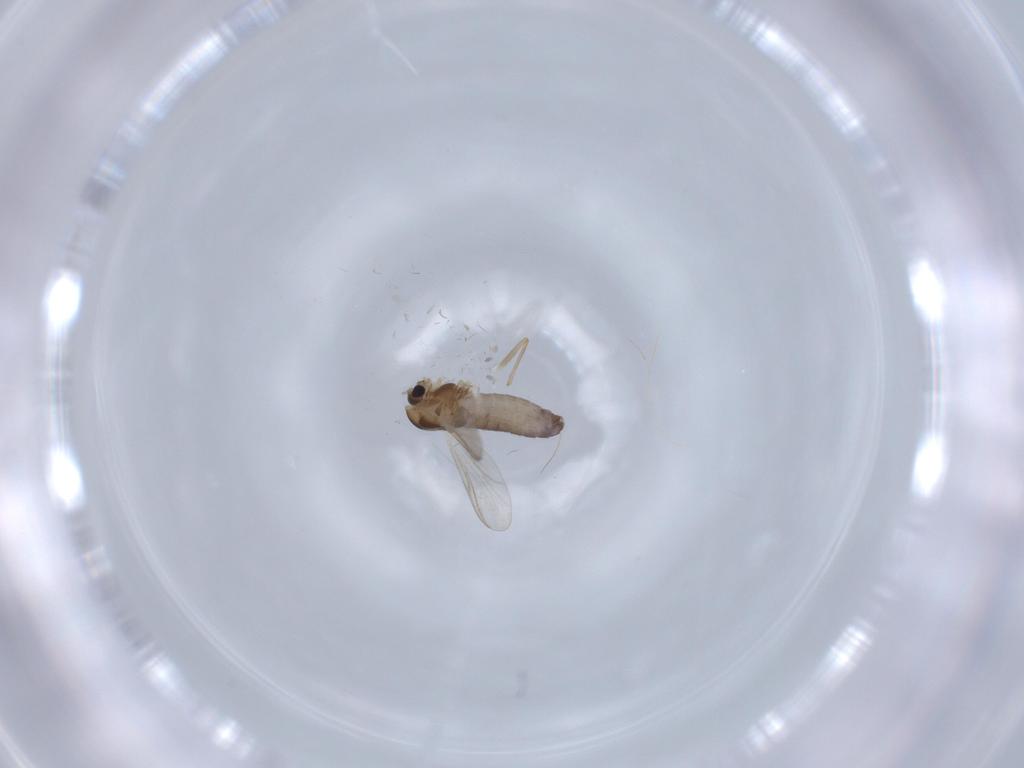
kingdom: Animalia
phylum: Arthropoda
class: Insecta
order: Diptera
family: Chironomidae
